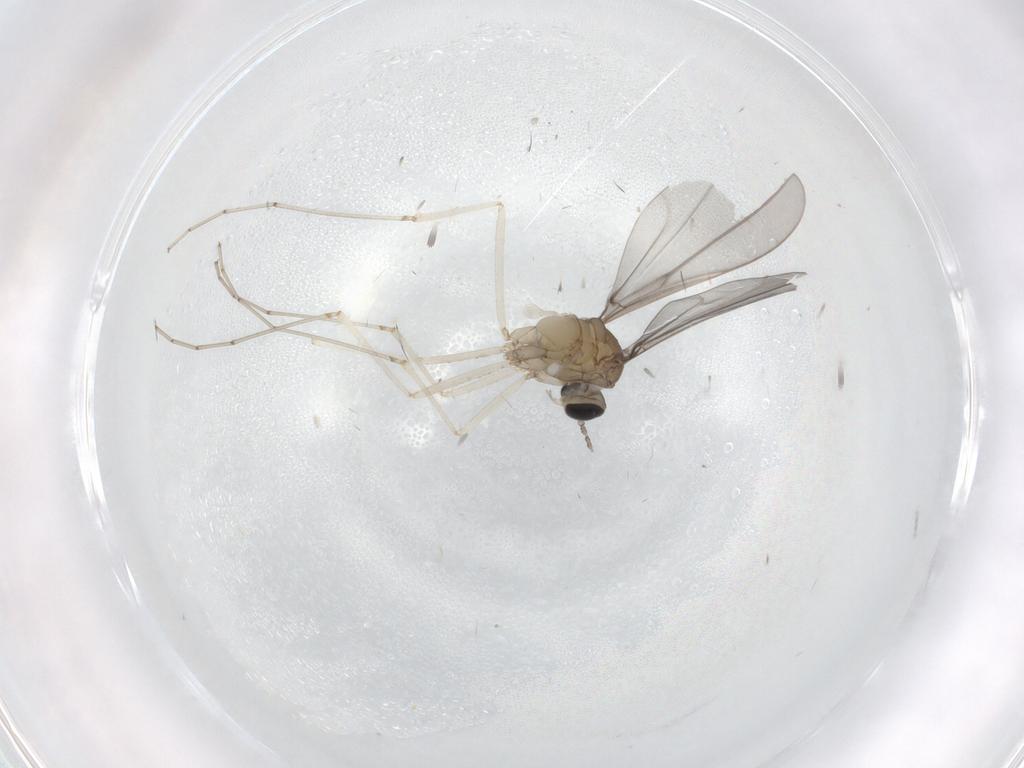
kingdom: Animalia
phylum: Arthropoda
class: Insecta
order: Diptera
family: Cecidomyiidae
